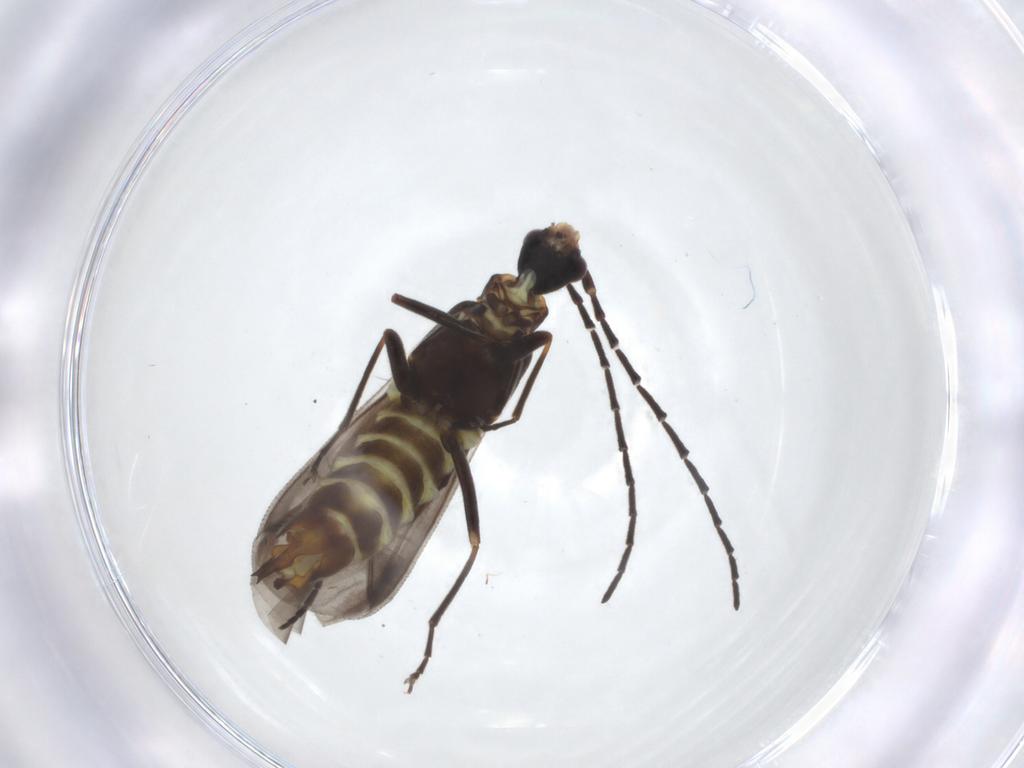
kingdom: Animalia
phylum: Arthropoda
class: Insecta
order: Coleoptera
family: Cantharidae
